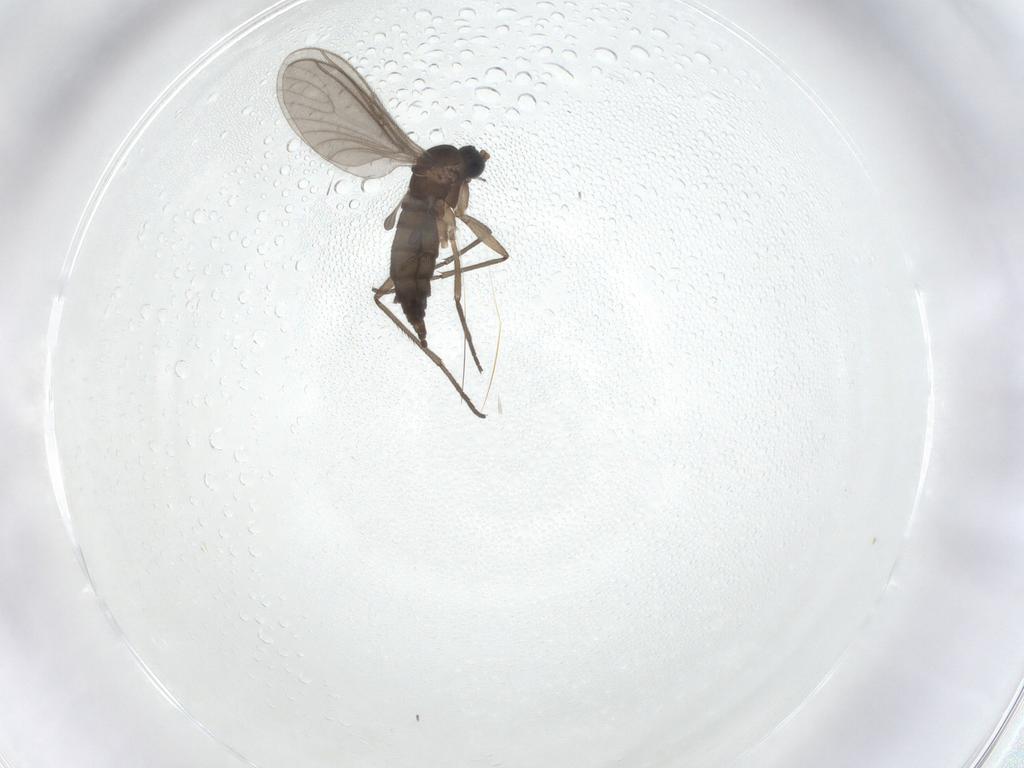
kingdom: Animalia
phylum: Arthropoda
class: Insecta
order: Diptera
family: Sciaridae
